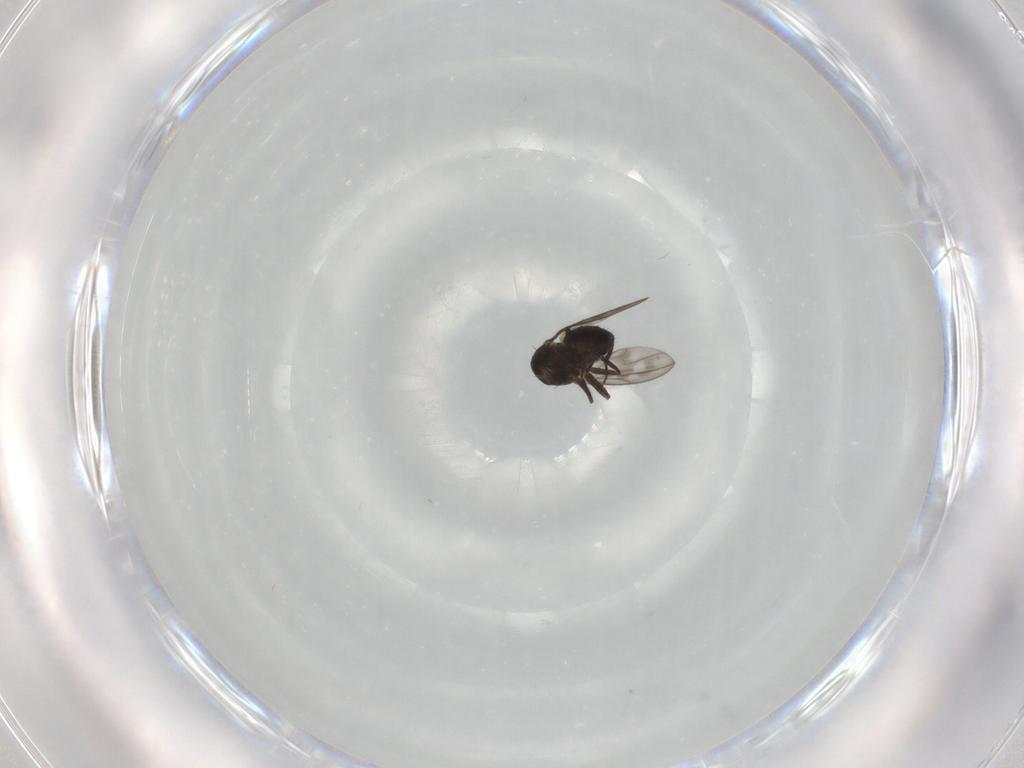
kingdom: Animalia
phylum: Arthropoda
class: Insecta
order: Diptera
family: Ephydridae
